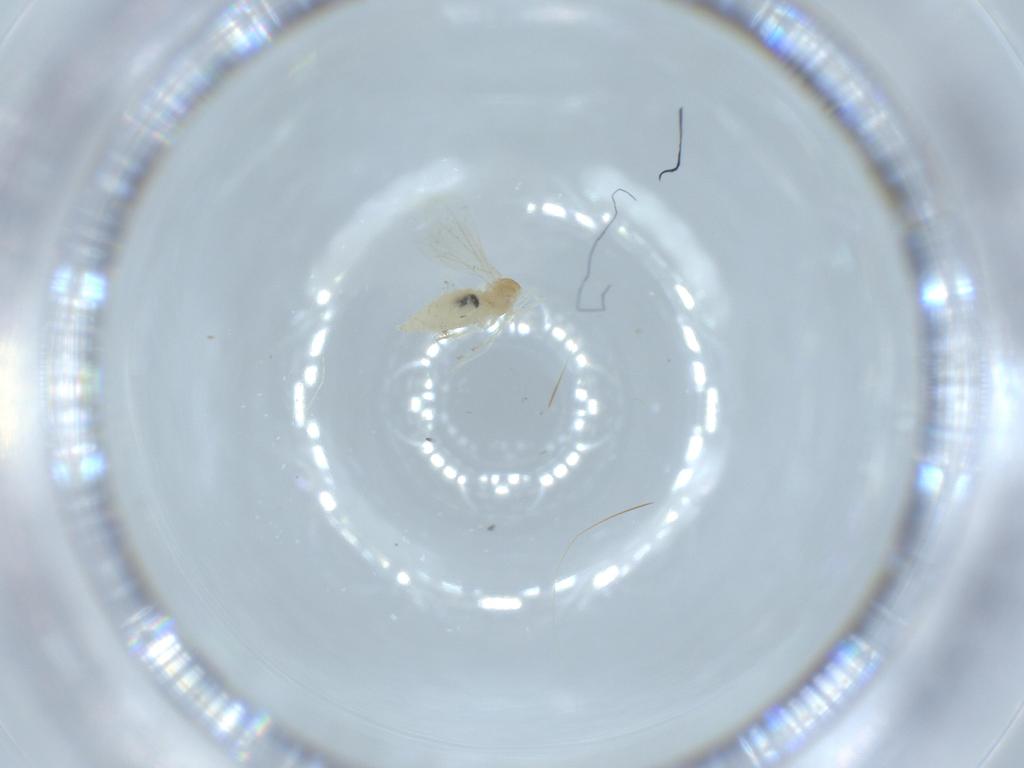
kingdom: Animalia
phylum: Arthropoda
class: Insecta
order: Diptera
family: Cecidomyiidae
